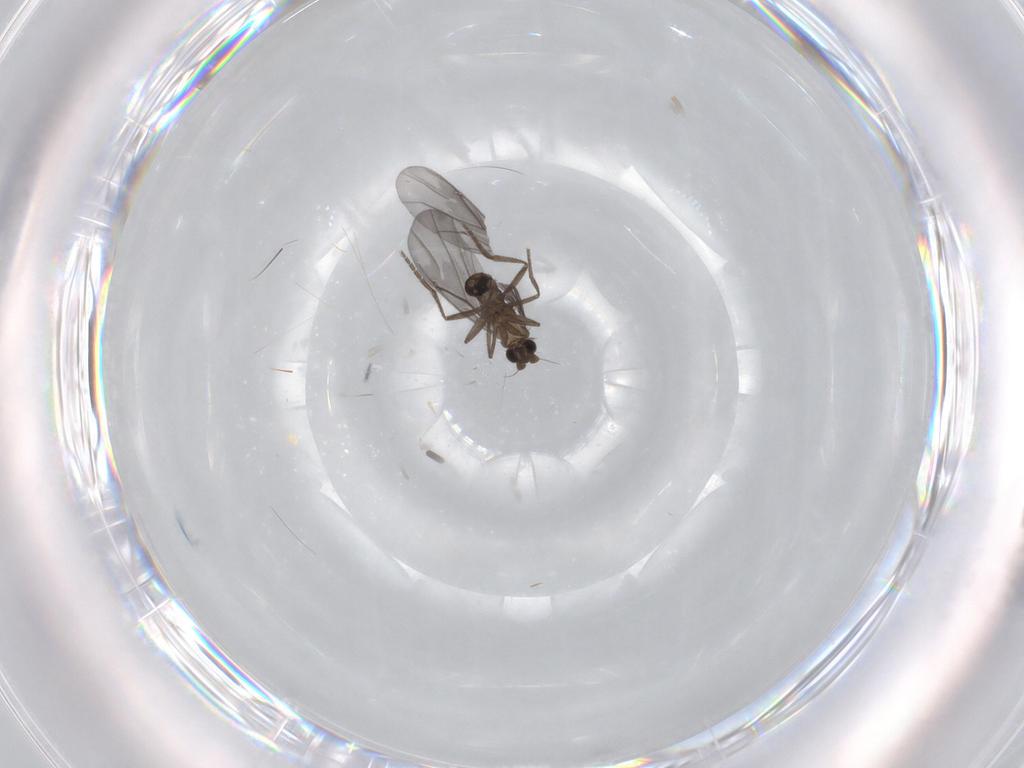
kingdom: Animalia
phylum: Arthropoda
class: Insecta
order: Diptera
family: Phoridae
